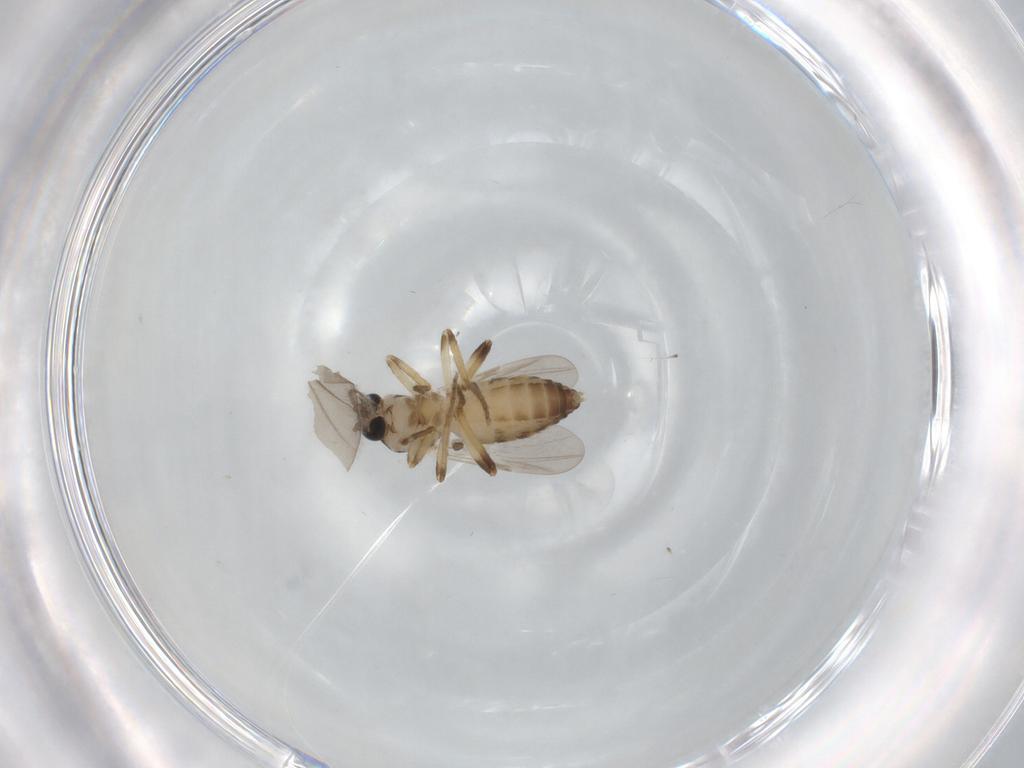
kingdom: Animalia
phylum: Arthropoda
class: Insecta
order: Diptera
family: Ceratopogonidae
